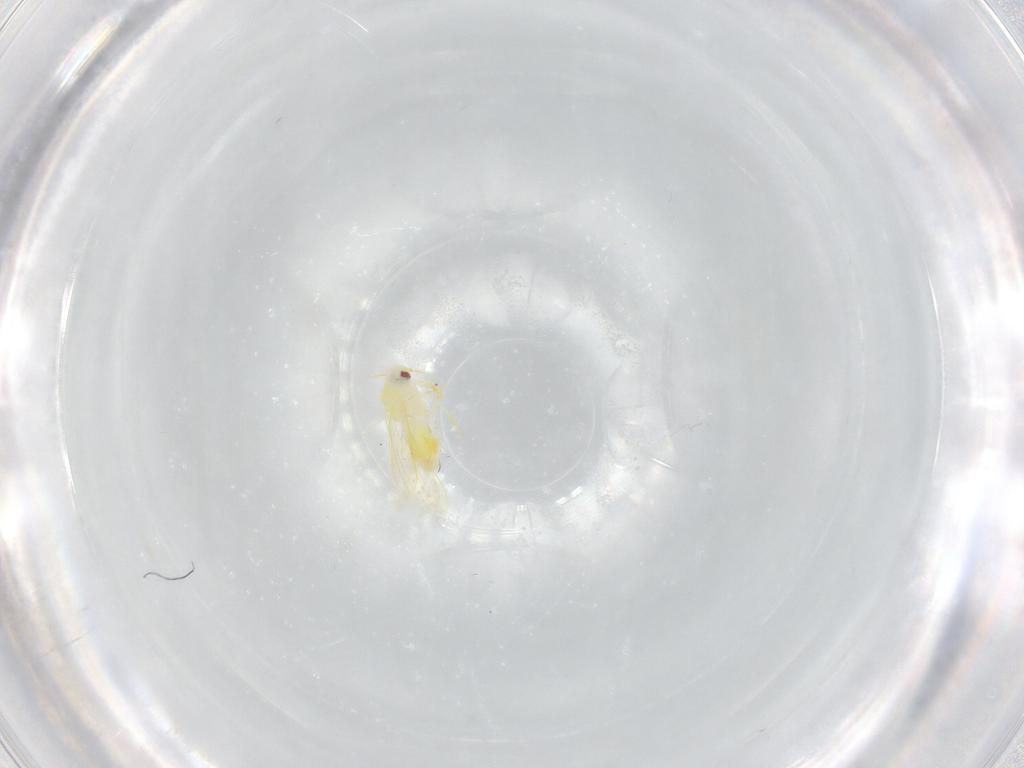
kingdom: Animalia
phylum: Arthropoda
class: Insecta
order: Hemiptera
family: Aleyrodidae
